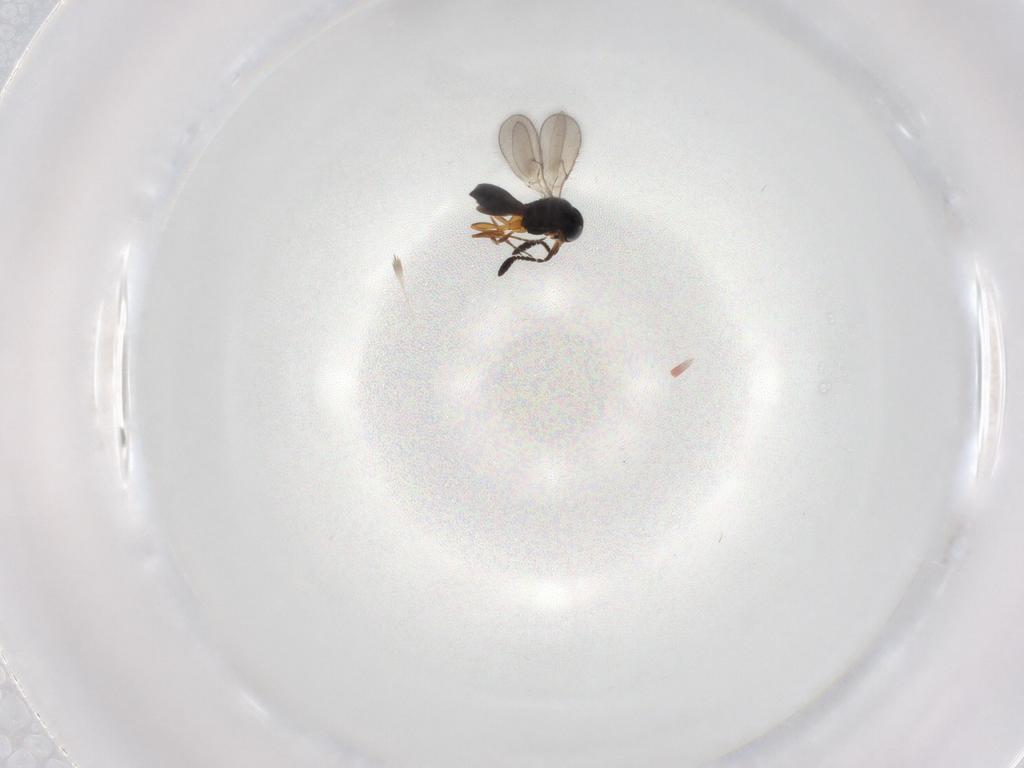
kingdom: Animalia
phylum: Arthropoda
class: Insecta
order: Hymenoptera
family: Scelionidae
